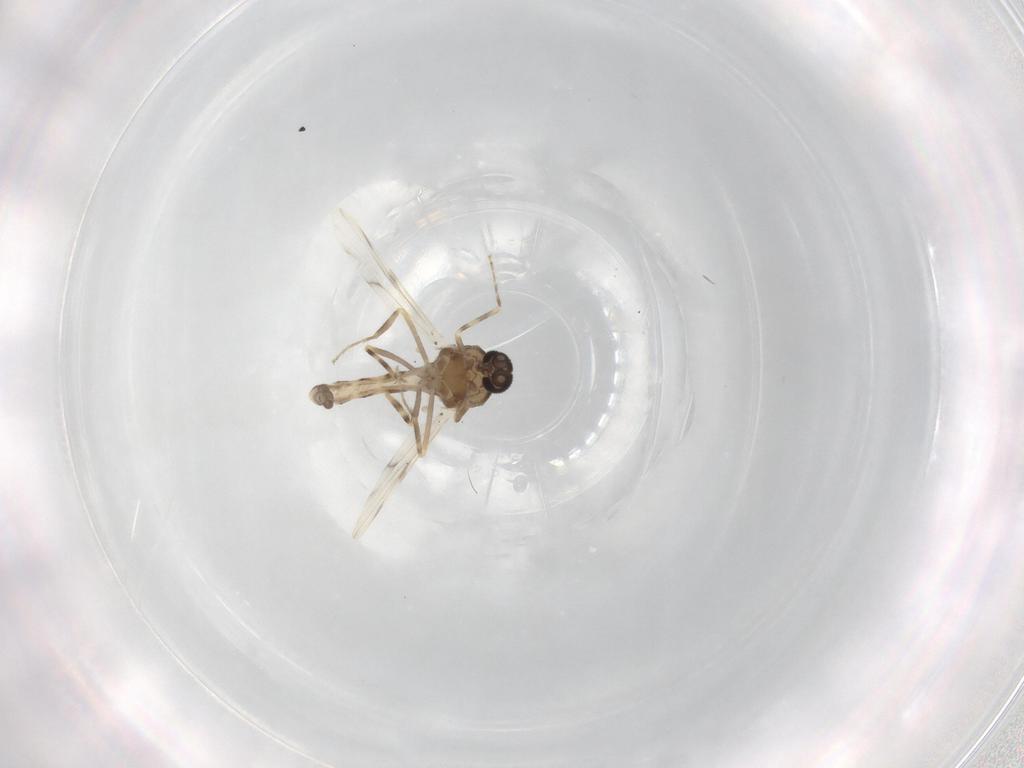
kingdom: Animalia
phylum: Arthropoda
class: Insecta
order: Diptera
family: Ceratopogonidae
